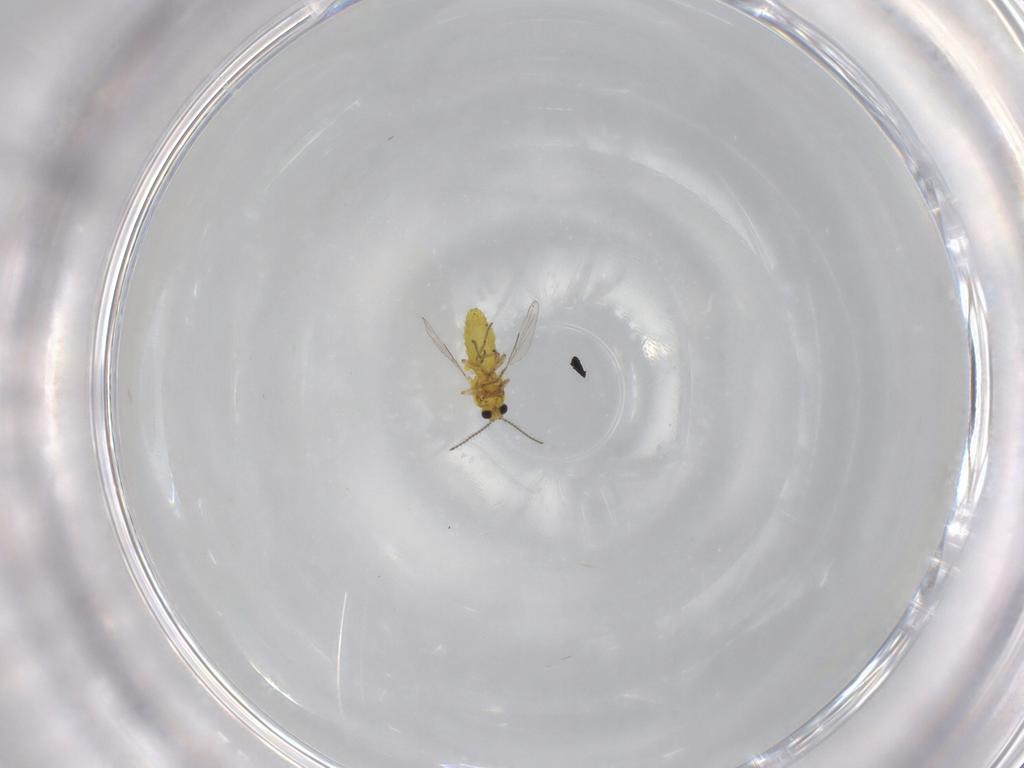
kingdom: Animalia
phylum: Arthropoda
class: Insecta
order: Diptera
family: Ceratopogonidae
